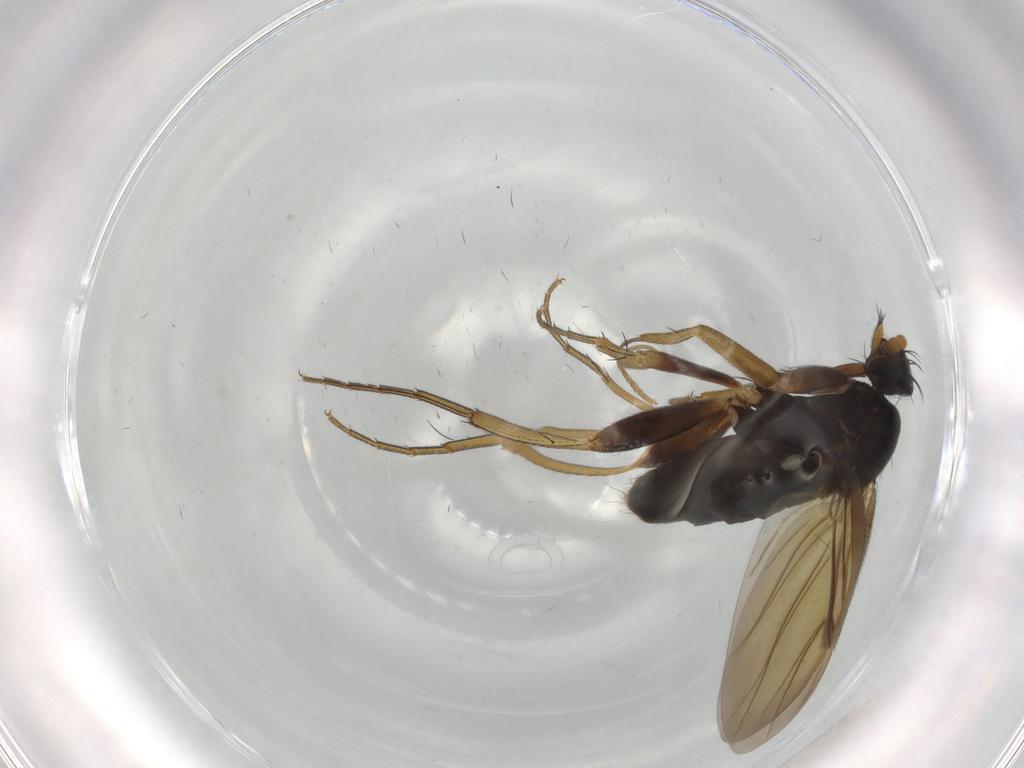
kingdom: Animalia
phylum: Arthropoda
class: Insecta
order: Diptera
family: Phoridae
